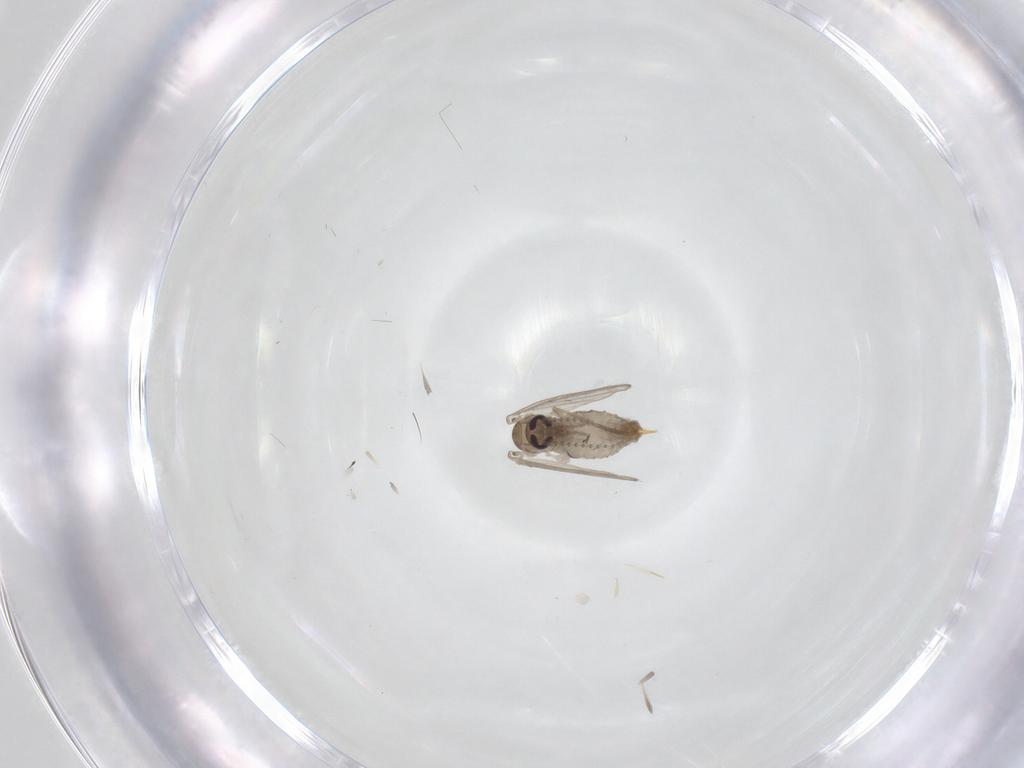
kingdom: Animalia
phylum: Arthropoda
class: Insecta
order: Diptera
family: Psychodidae
